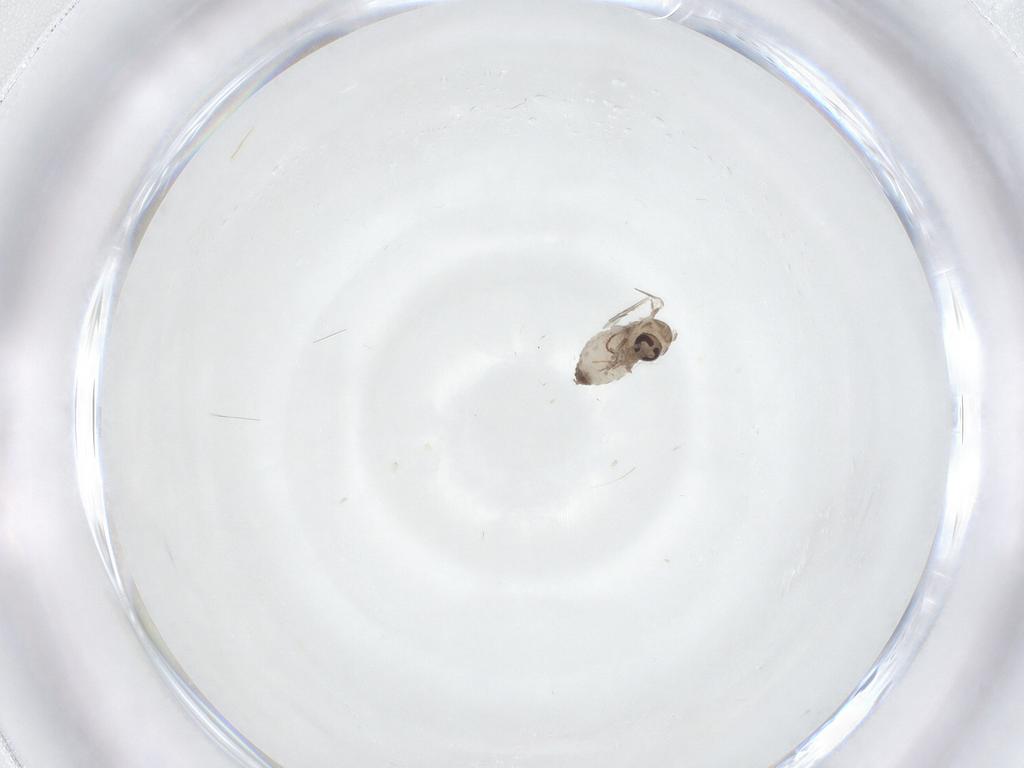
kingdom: Animalia
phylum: Arthropoda
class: Insecta
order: Diptera
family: Psychodidae
